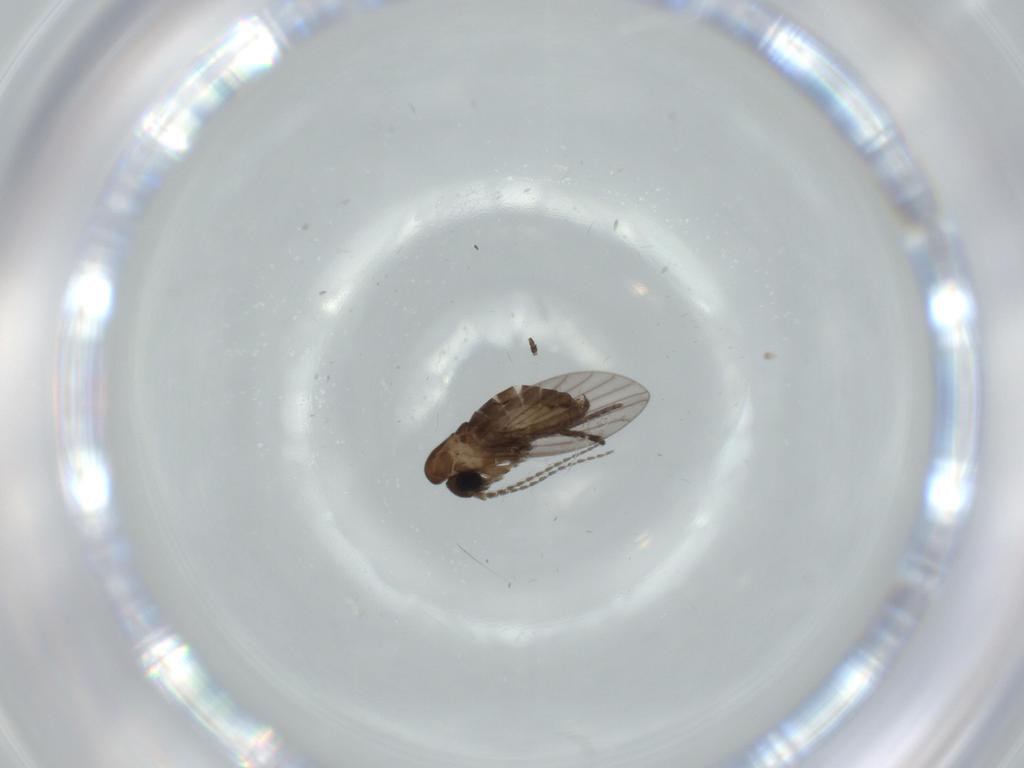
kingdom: Animalia
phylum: Arthropoda
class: Insecta
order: Diptera
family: Psychodidae
